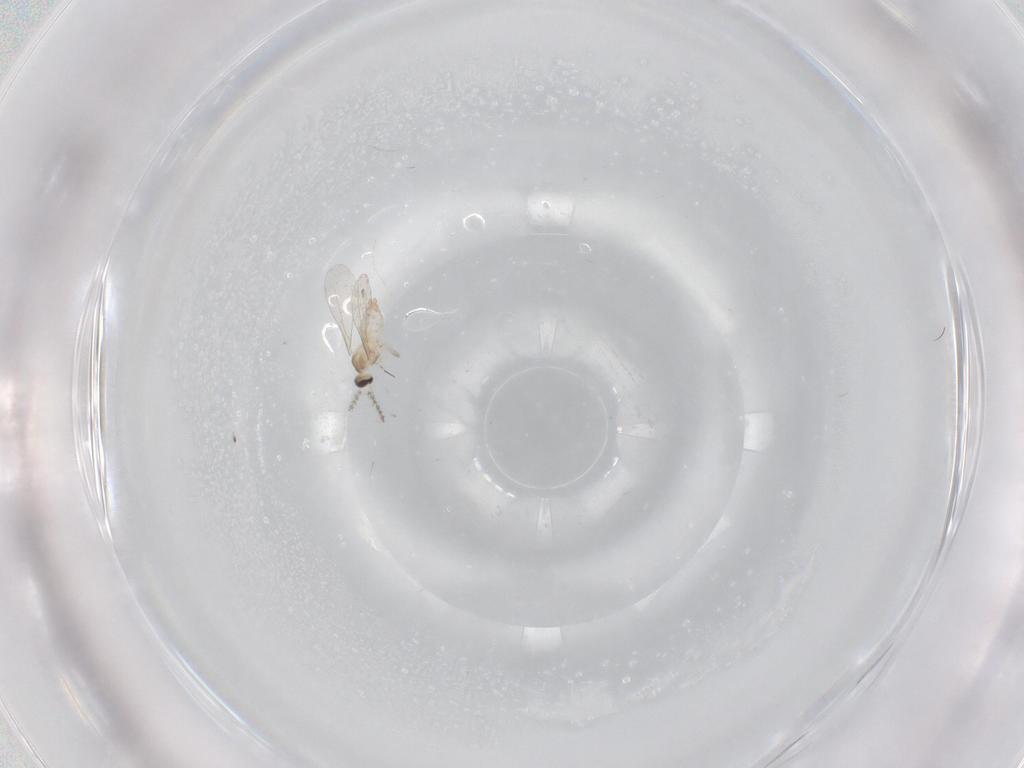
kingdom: Animalia
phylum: Arthropoda
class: Insecta
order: Diptera
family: Cecidomyiidae
